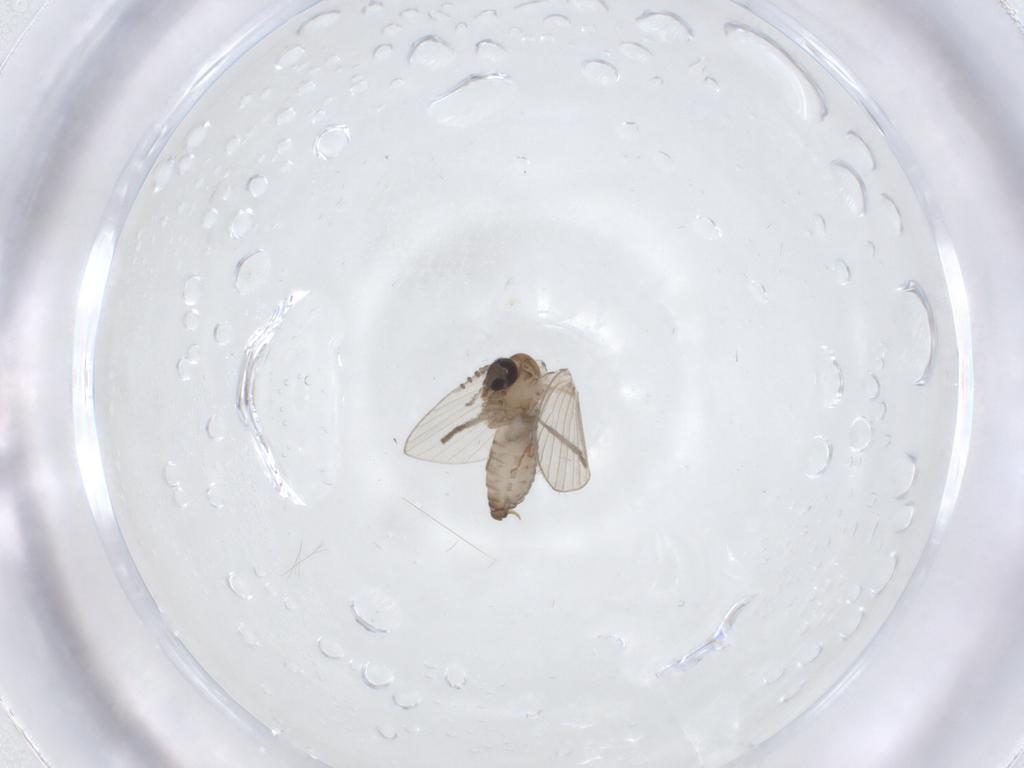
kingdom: Animalia
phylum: Arthropoda
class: Insecta
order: Diptera
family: Psychodidae
